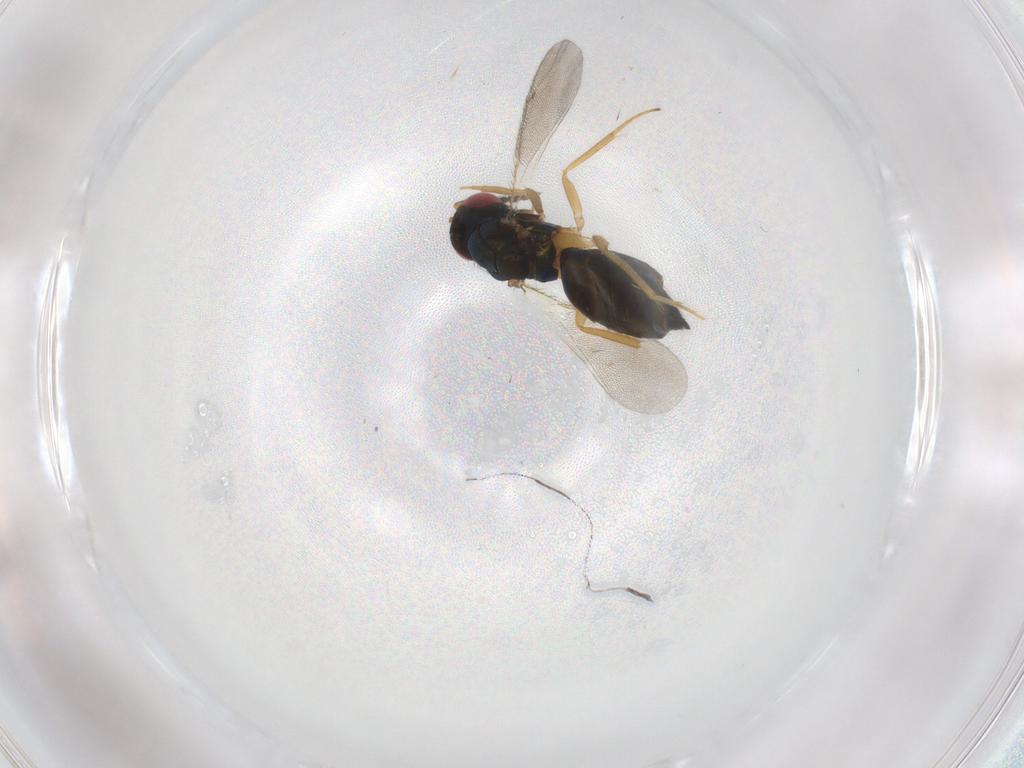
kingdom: Animalia
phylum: Arthropoda
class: Insecta
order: Hymenoptera
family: Eulophidae
